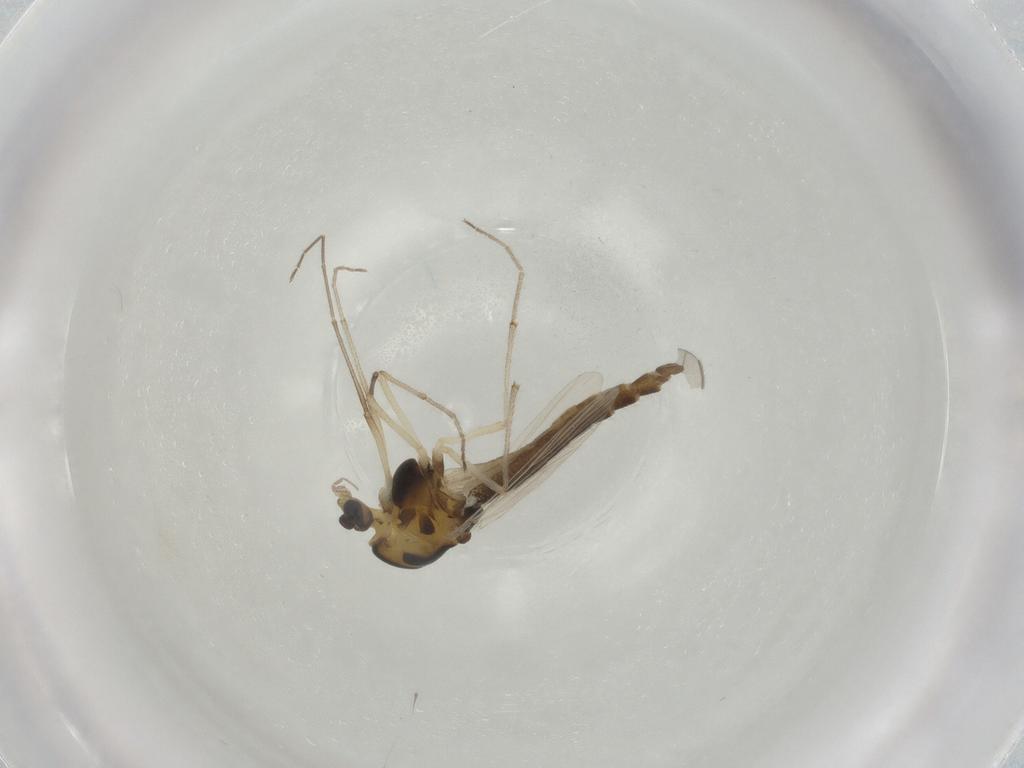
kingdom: Animalia
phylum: Arthropoda
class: Insecta
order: Diptera
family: Chironomidae
